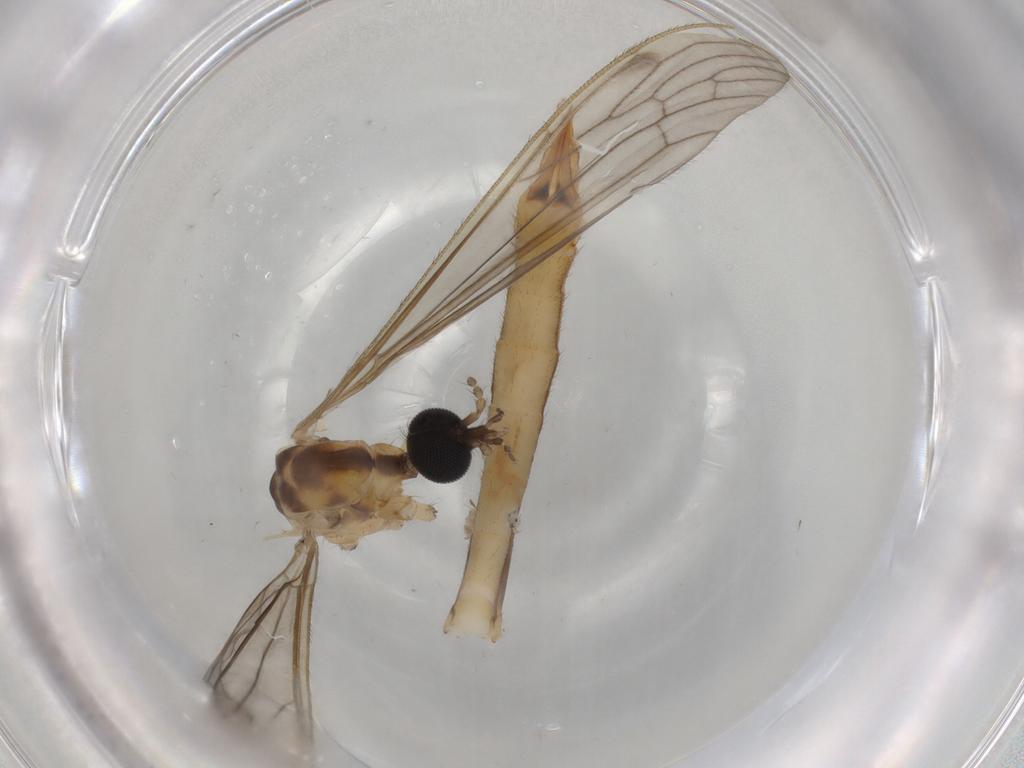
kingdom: Animalia
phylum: Arthropoda
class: Insecta
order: Diptera
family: Limoniidae
